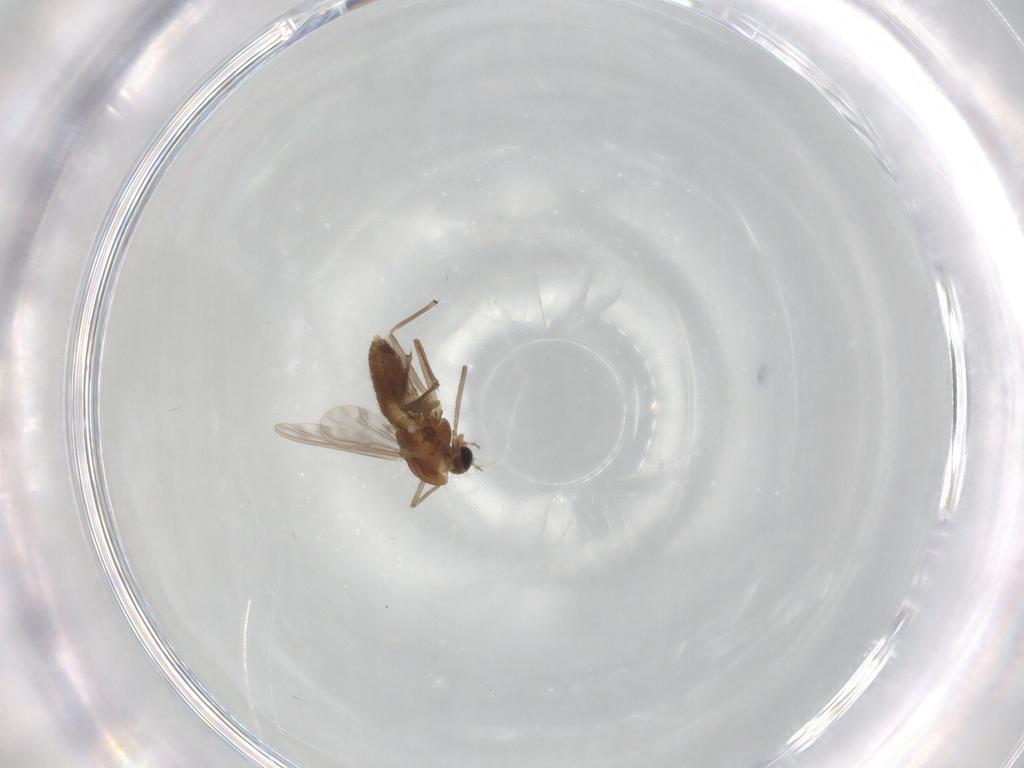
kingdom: Animalia
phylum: Arthropoda
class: Insecta
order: Diptera
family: Chironomidae
